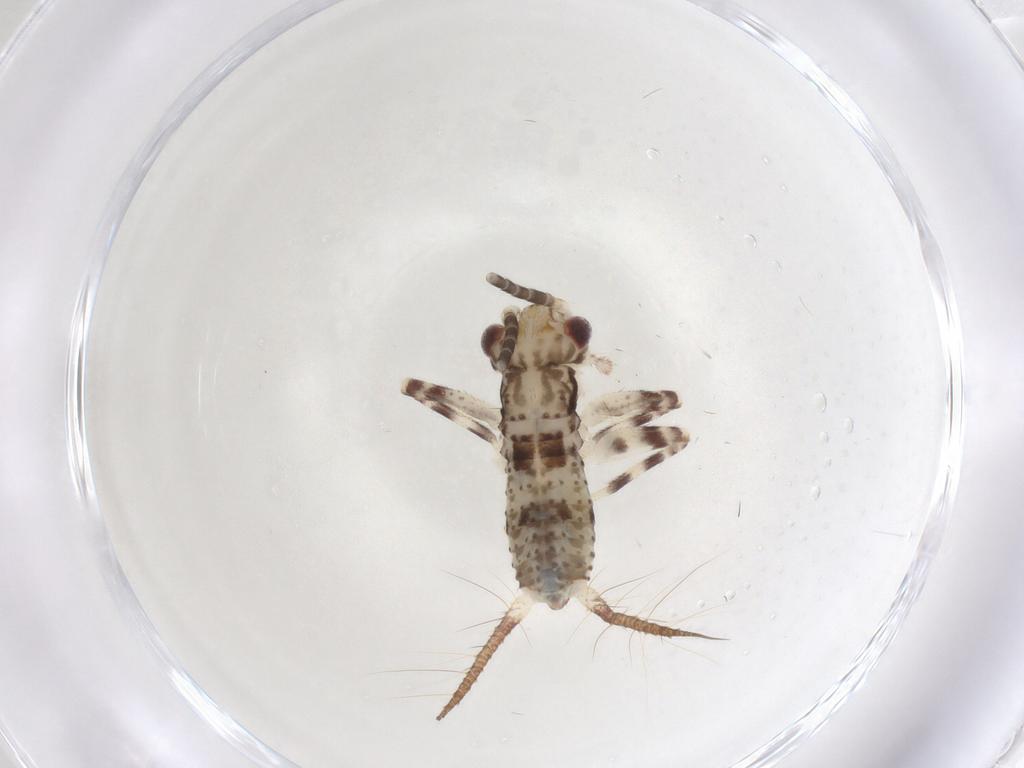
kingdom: Animalia
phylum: Arthropoda
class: Insecta
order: Orthoptera
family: Gryllidae
